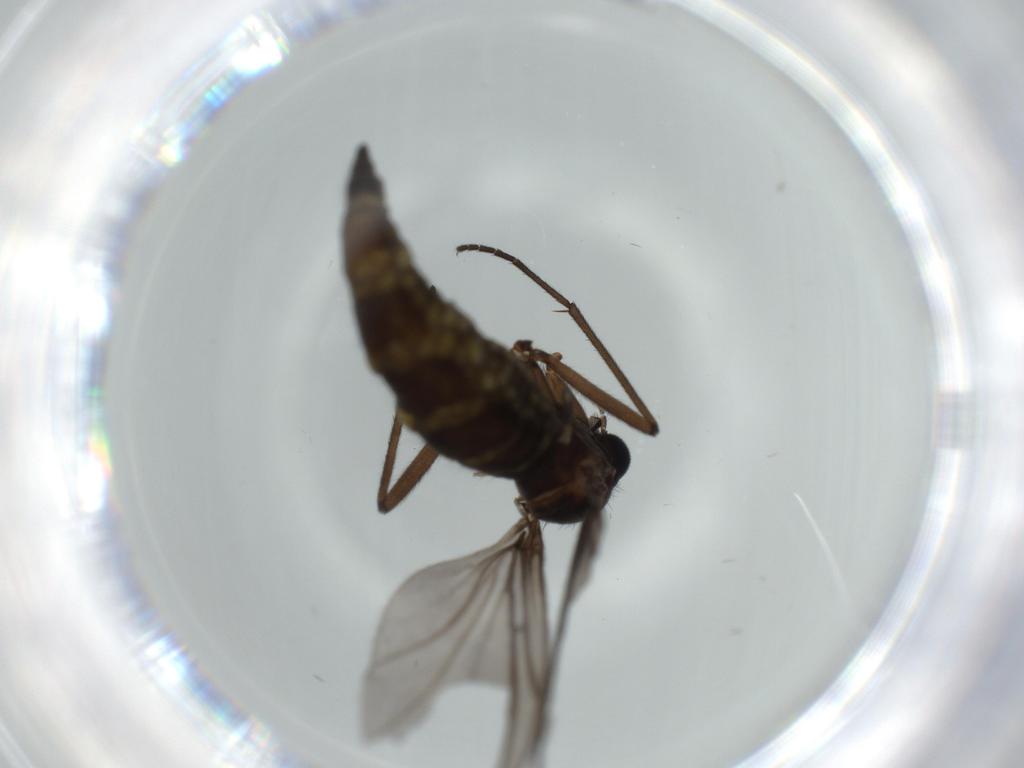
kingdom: Animalia
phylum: Arthropoda
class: Insecta
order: Diptera
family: Sciaridae
